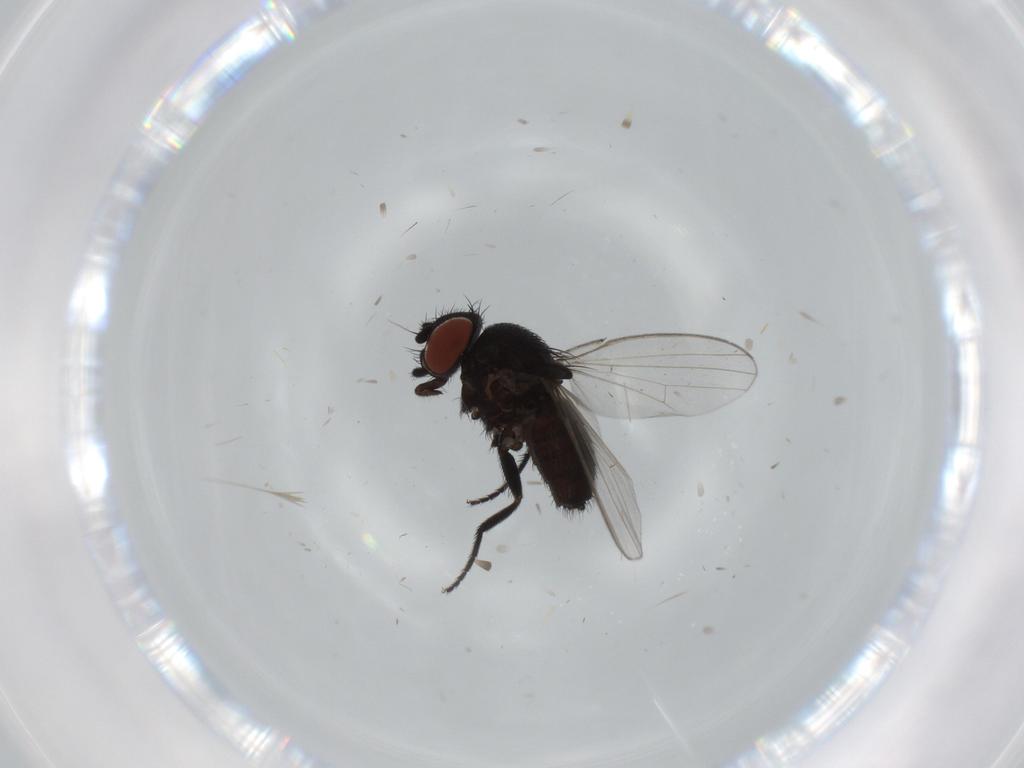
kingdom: Animalia
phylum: Arthropoda
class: Insecta
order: Diptera
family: Milichiidae
